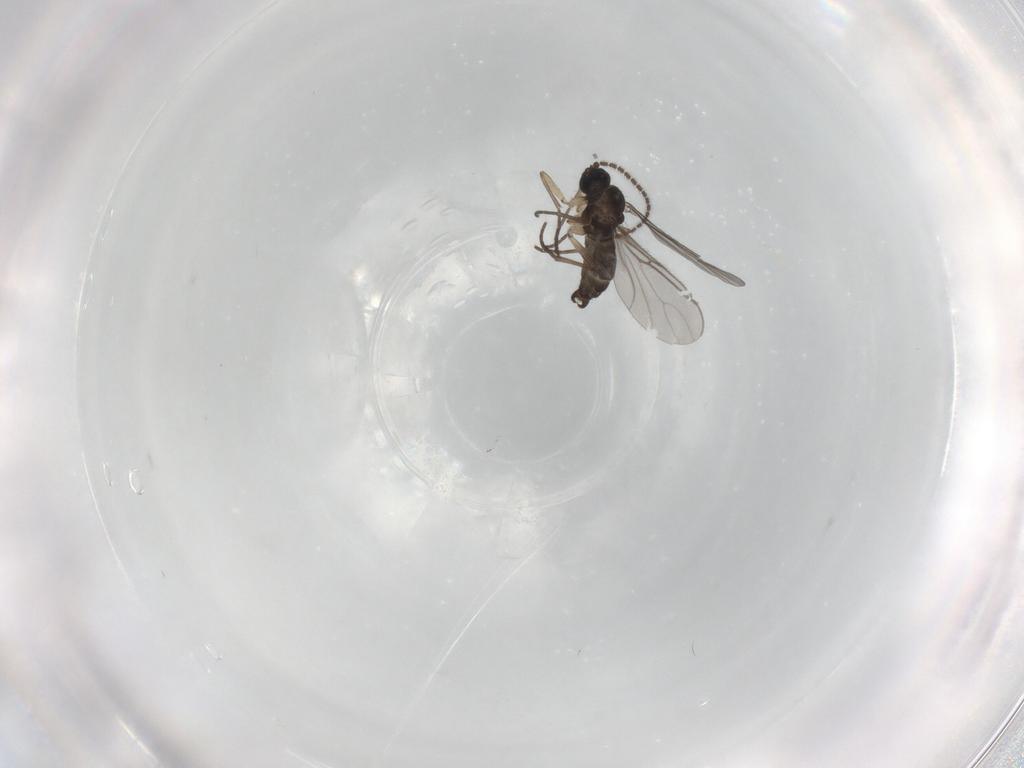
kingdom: Animalia
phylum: Arthropoda
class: Insecta
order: Diptera
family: Sciaridae
